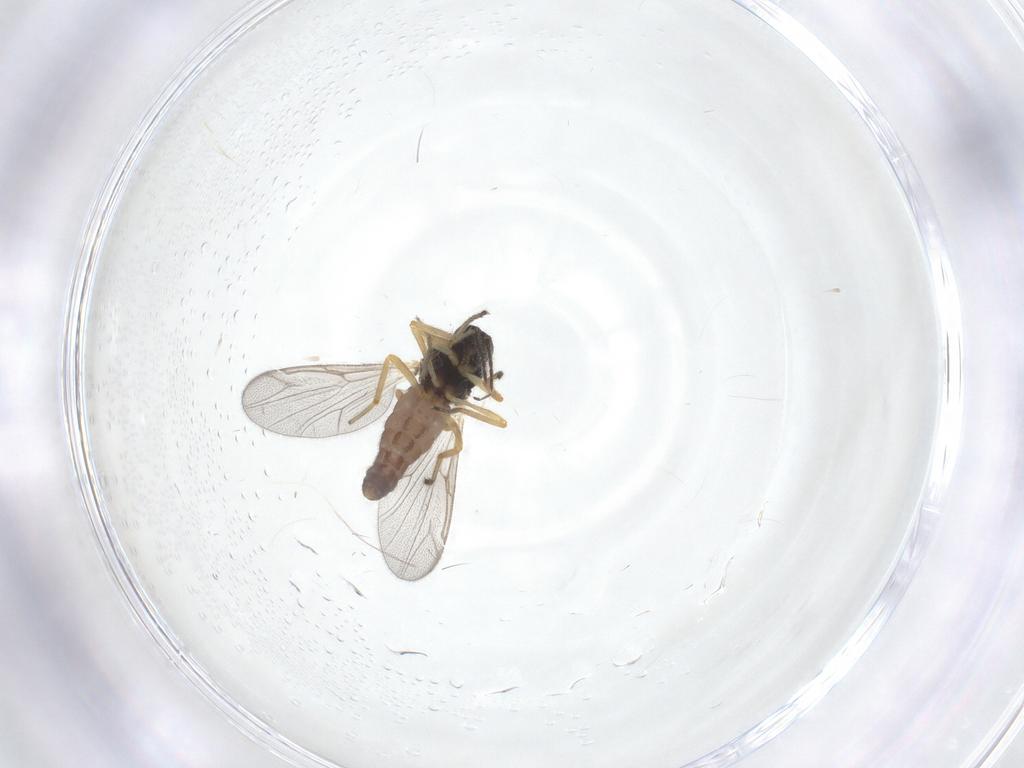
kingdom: Animalia
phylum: Arthropoda
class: Insecta
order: Diptera
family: Ceratopogonidae
